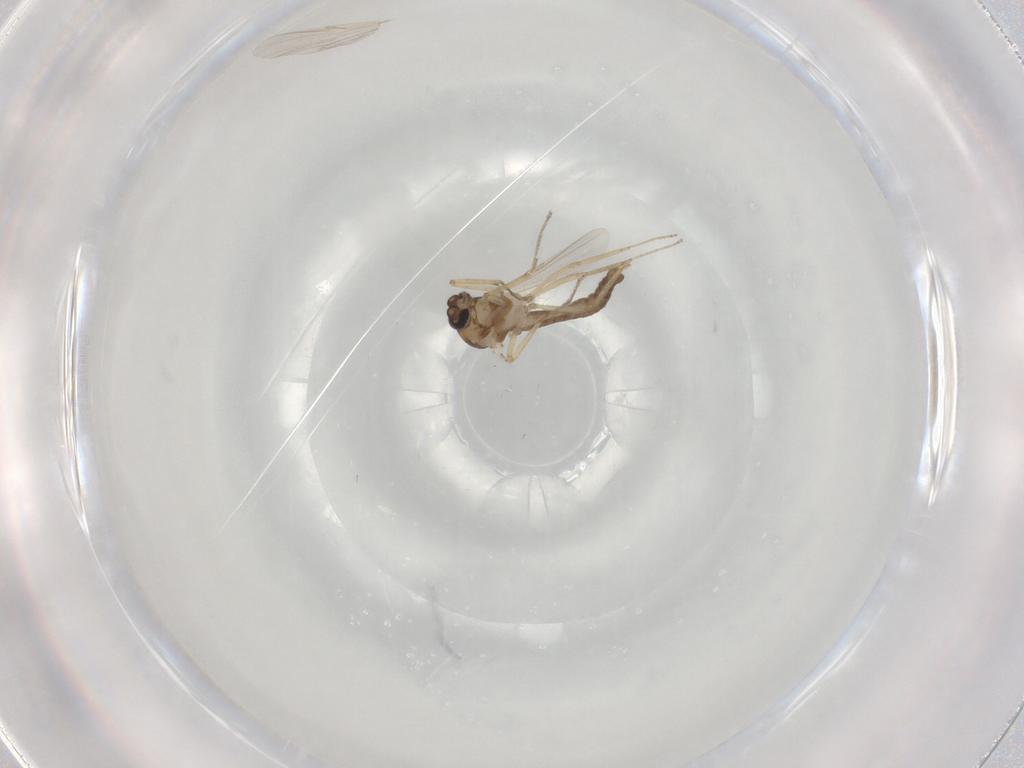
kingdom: Animalia
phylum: Arthropoda
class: Insecta
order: Diptera
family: Ceratopogonidae
